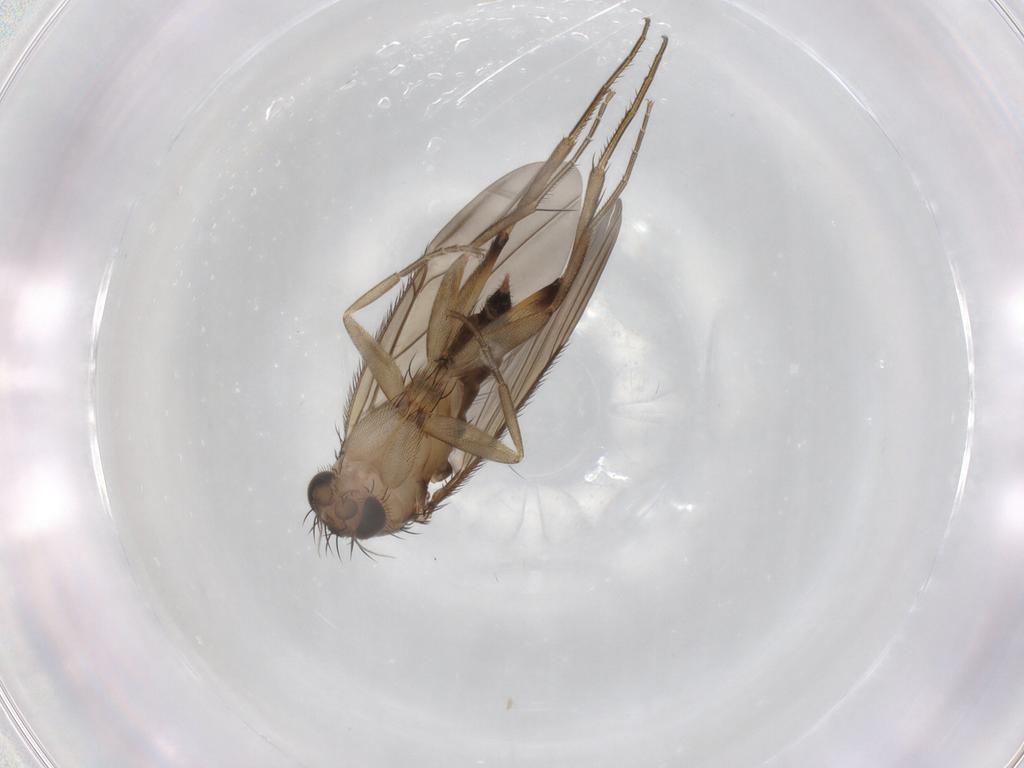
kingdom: Animalia
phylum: Arthropoda
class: Insecta
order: Diptera
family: Phoridae
